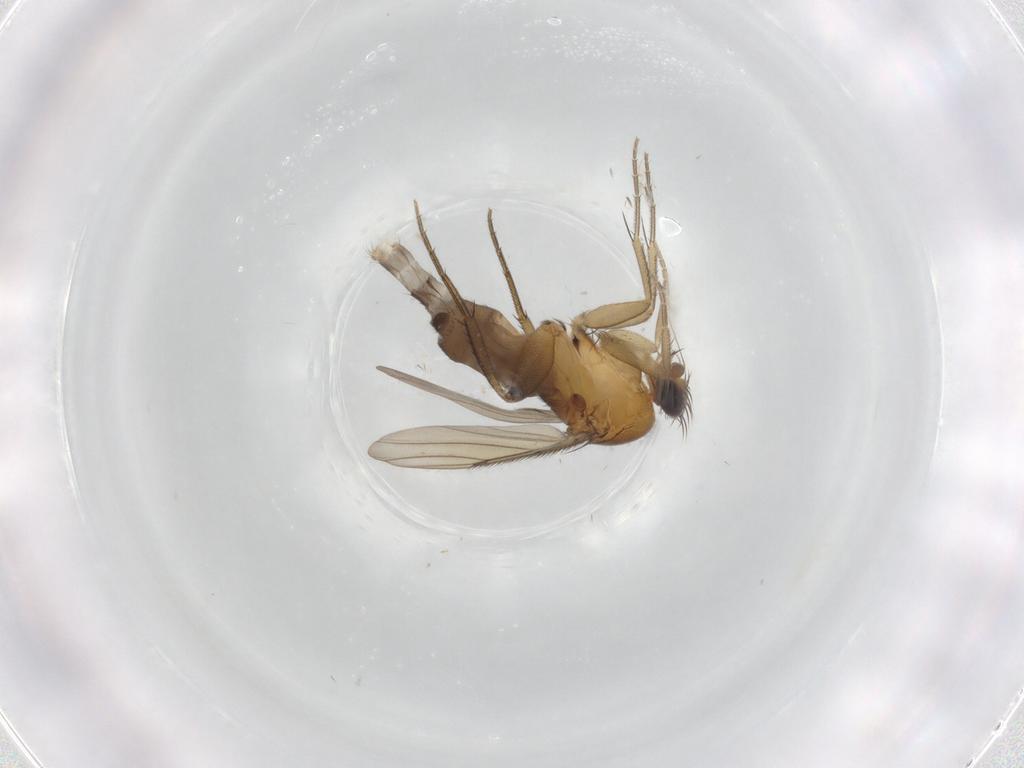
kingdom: Animalia
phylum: Arthropoda
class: Insecta
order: Diptera
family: Phoridae
